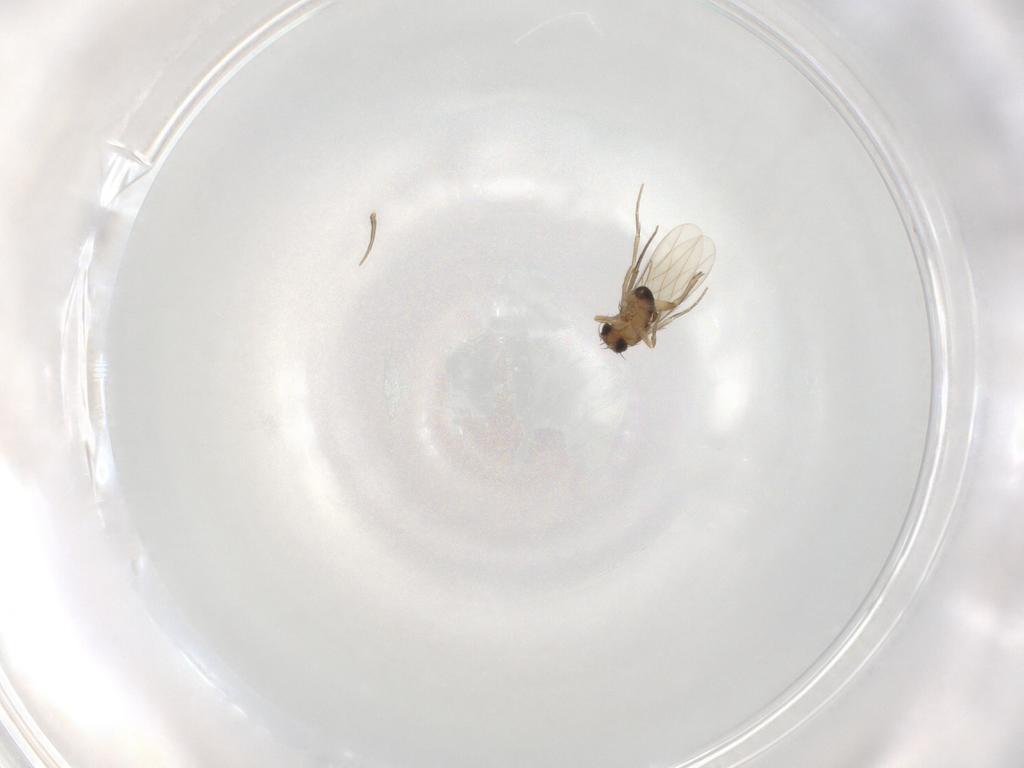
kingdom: Animalia
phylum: Arthropoda
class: Insecta
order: Diptera
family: Phoridae
